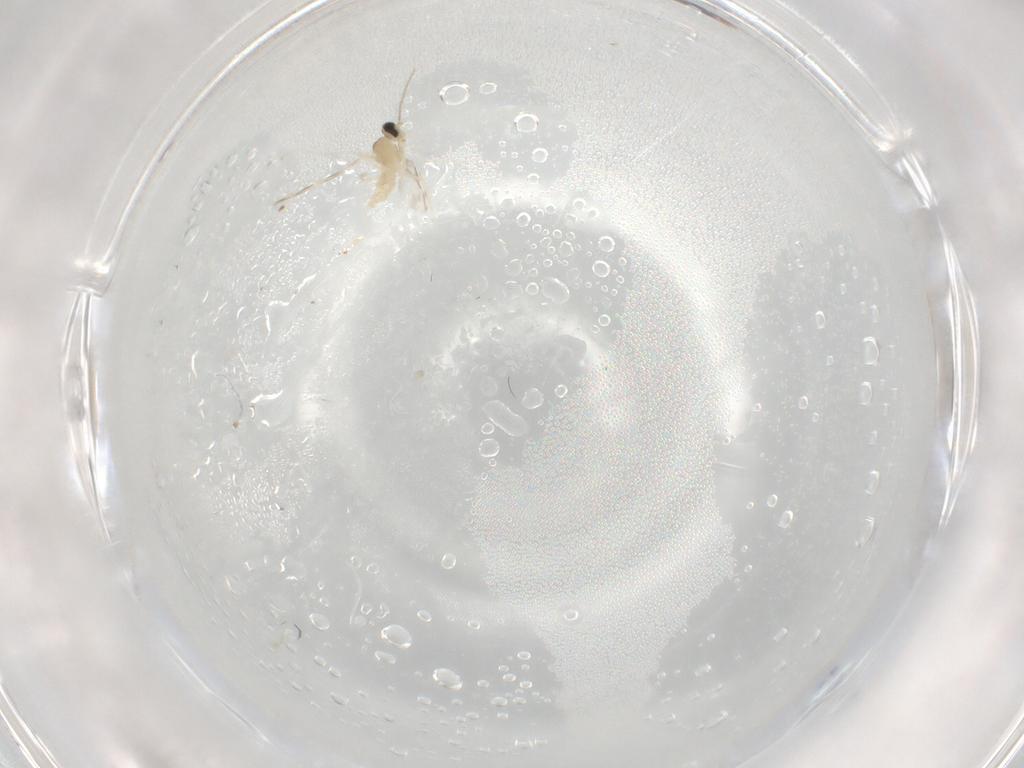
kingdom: Animalia
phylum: Arthropoda
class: Insecta
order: Diptera
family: Cecidomyiidae
